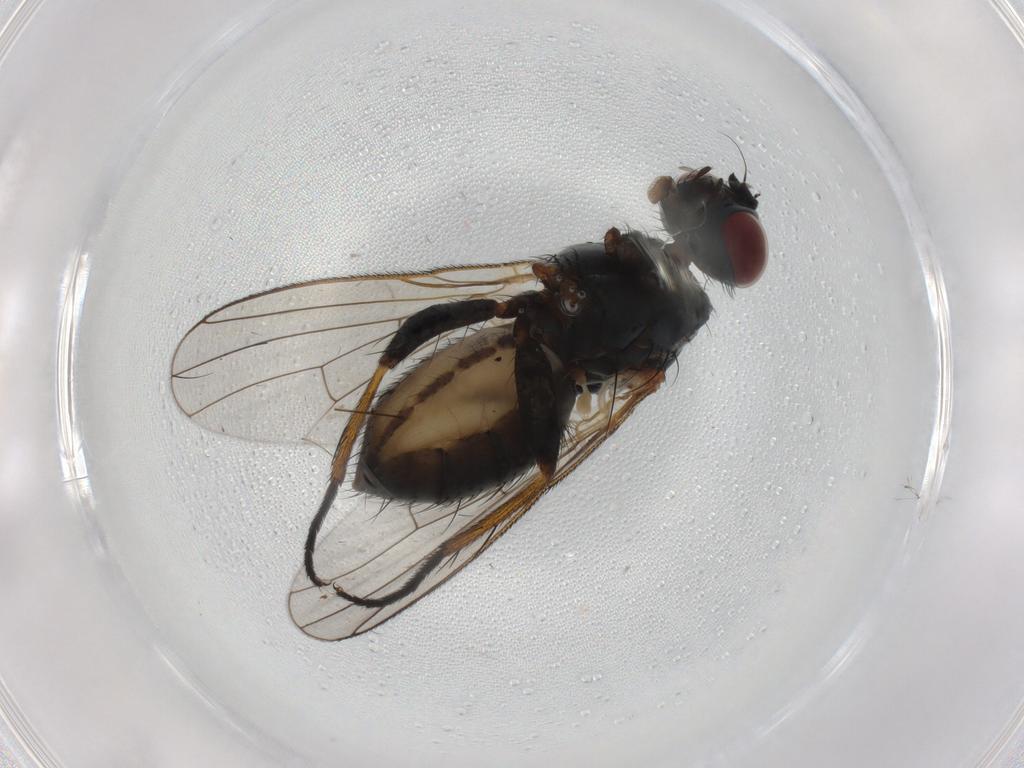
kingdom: Animalia
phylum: Arthropoda
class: Insecta
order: Diptera
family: Muscidae
